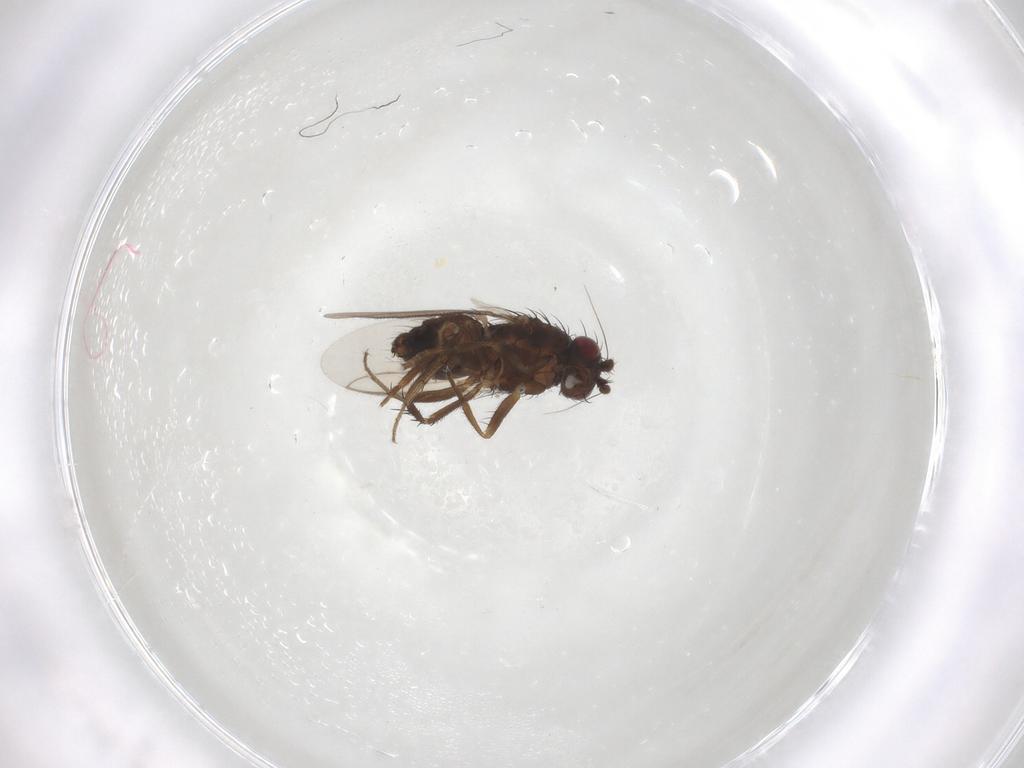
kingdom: Animalia
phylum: Arthropoda
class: Insecta
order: Diptera
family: Sphaeroceridae
